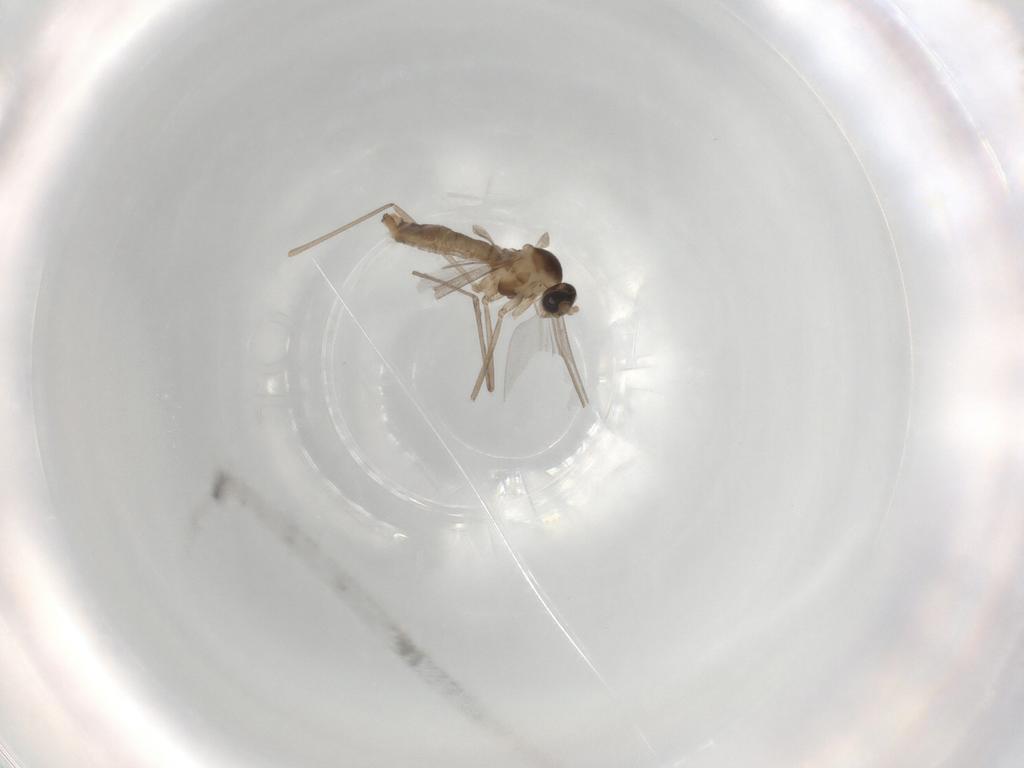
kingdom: Animalia
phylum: Arthropoda
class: Insecta
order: Diptera
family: Cecidomyiidae
